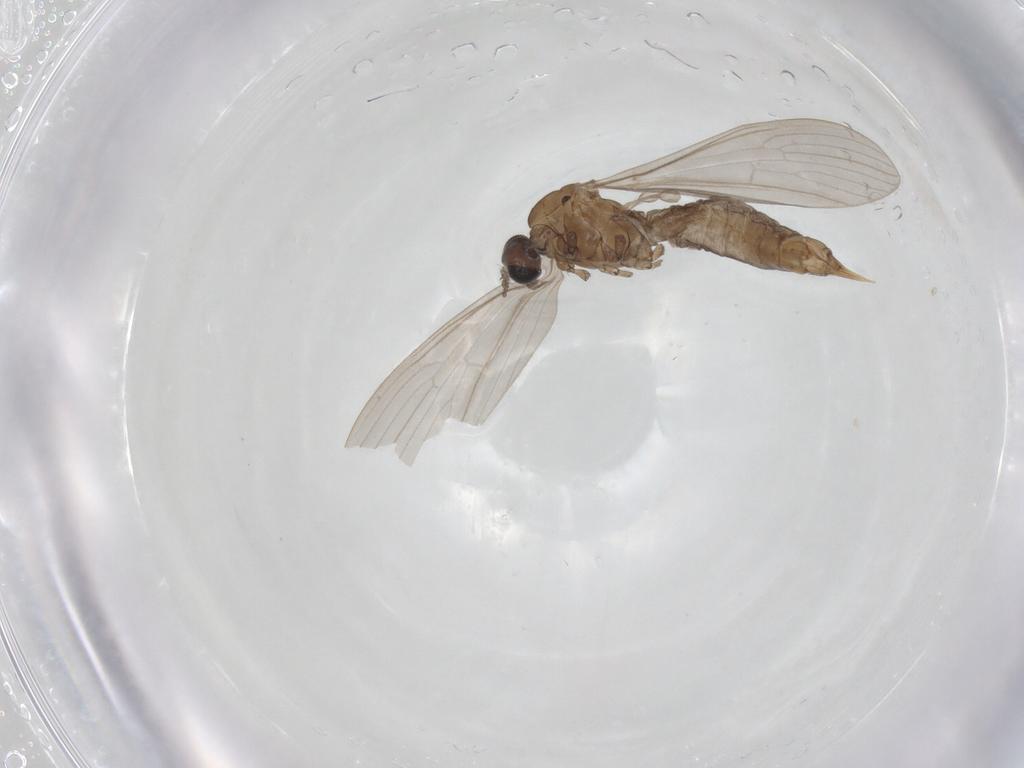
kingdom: Animalia
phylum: Arthropoda
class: Insecta
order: Diptera
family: Limoniidae
